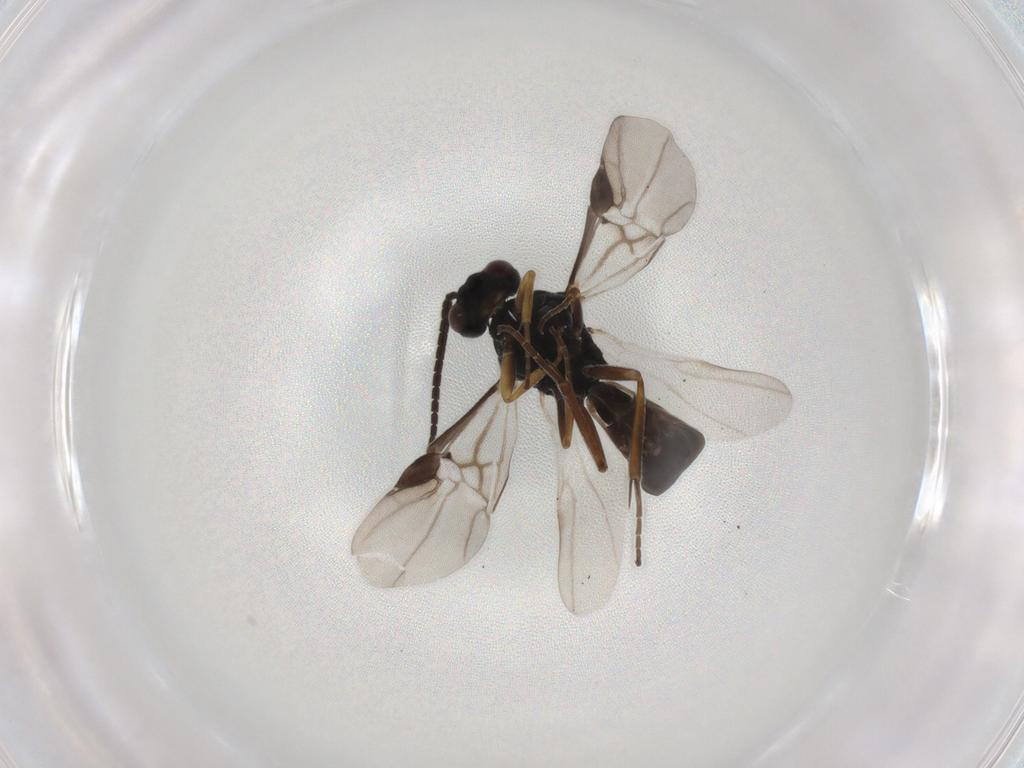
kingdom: Animalia
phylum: Arthropoda
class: Insecta
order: Hymenoptera
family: Braconidae
